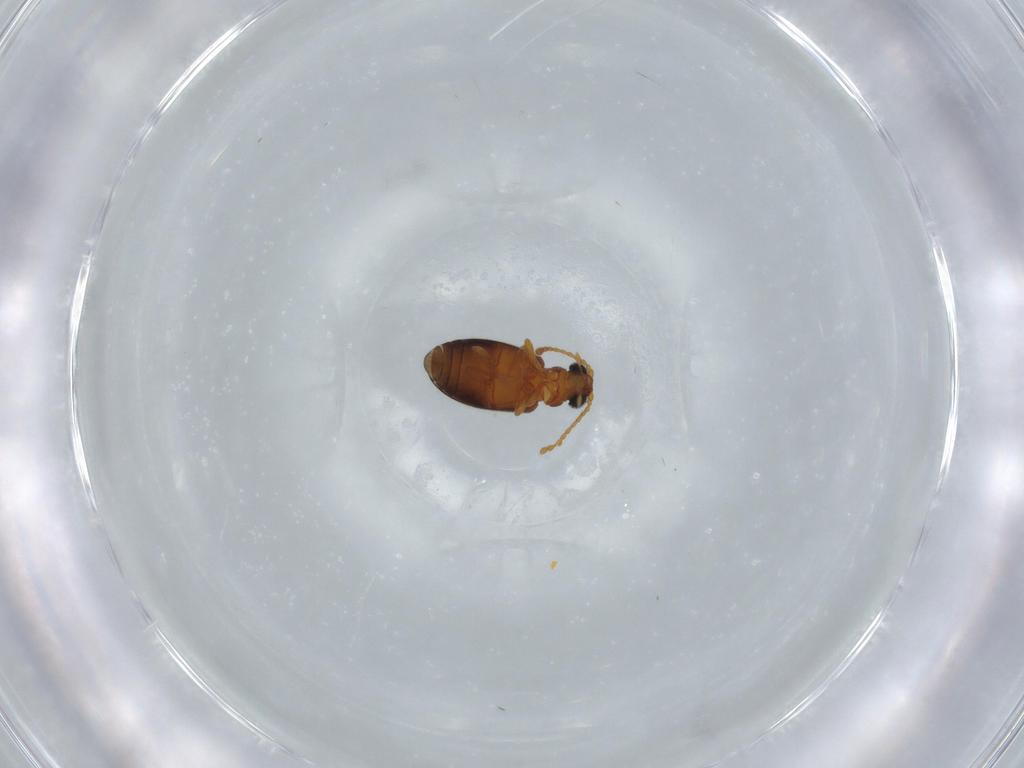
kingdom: Animalia
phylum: Arthropoda
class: Insecta
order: Coleoptera
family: Aderidae
